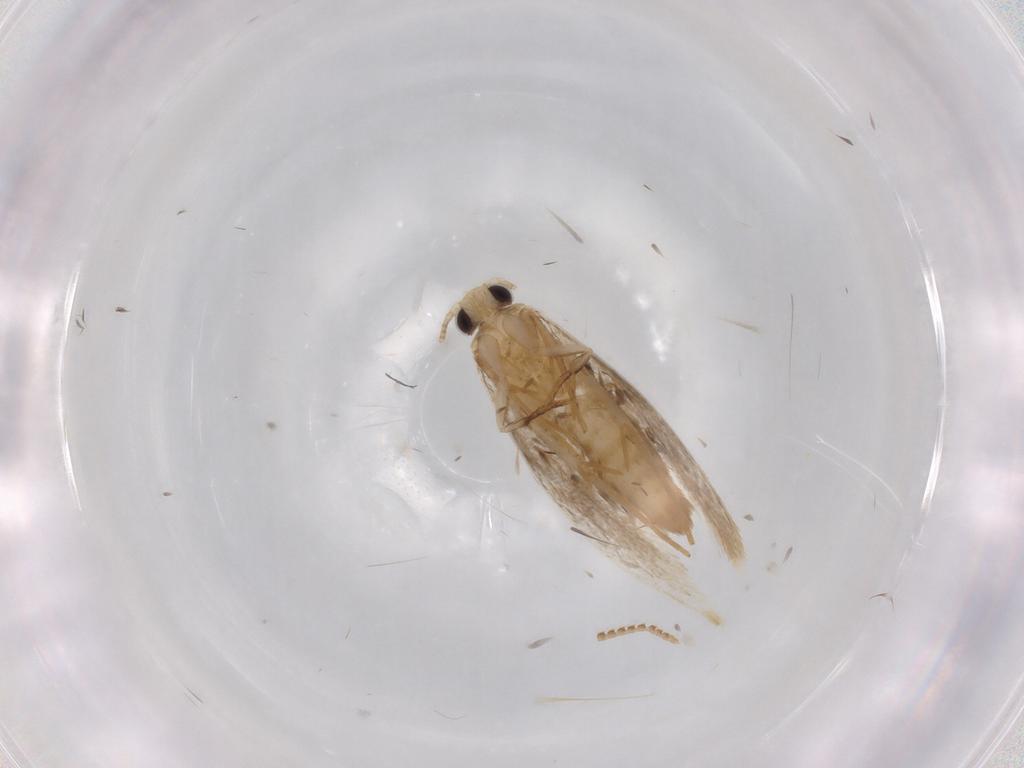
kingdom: Animalia
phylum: Arthropoda
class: Insecta
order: Lepidoptera
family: Tineidae
